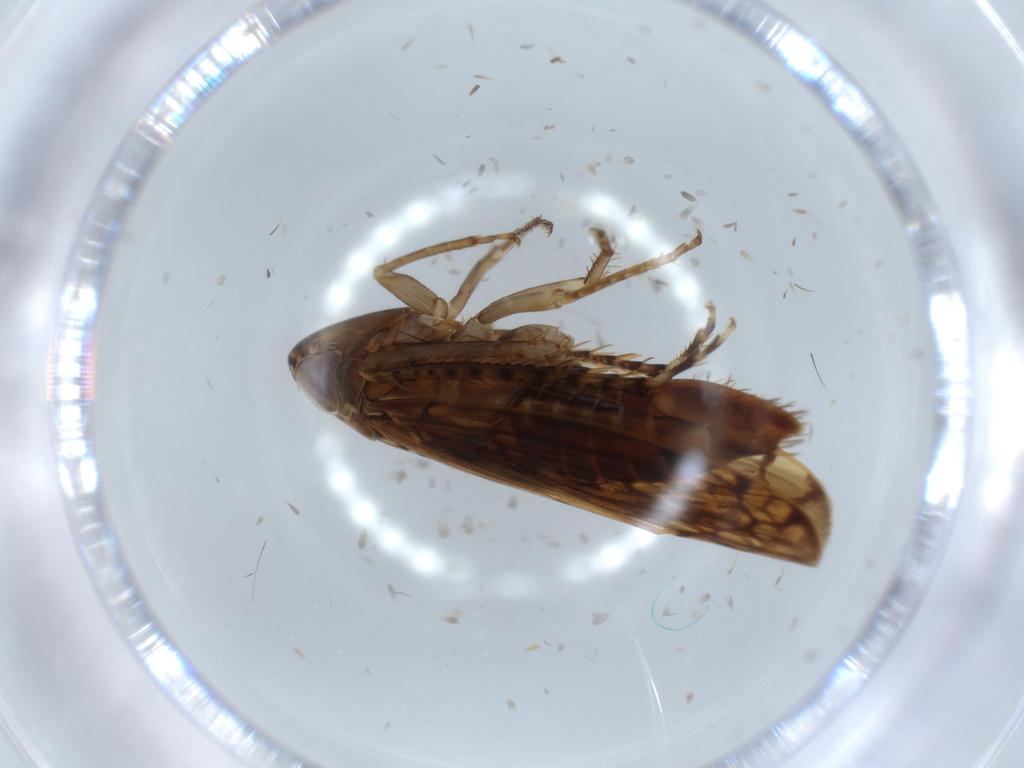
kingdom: Animalia
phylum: Arthropoda
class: Insecta
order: Hemiptera
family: Cicadellidae
